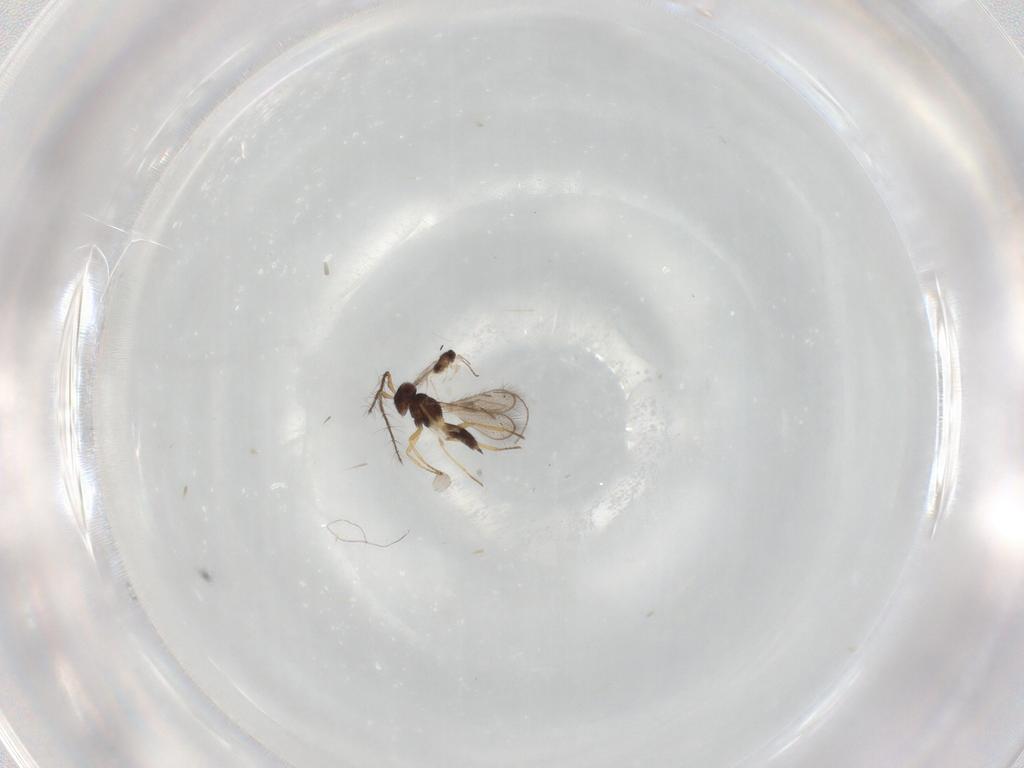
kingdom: Animalia
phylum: Arthropoda
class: Insecta
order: Hymenoptera
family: Eulophidae
